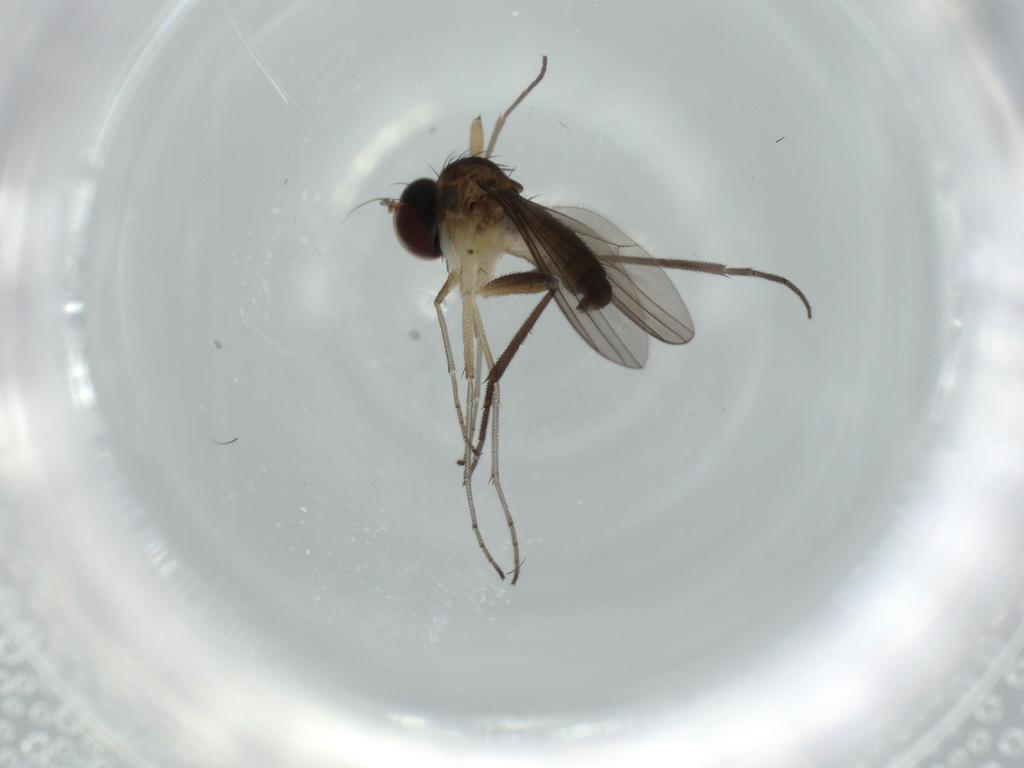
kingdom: Animalia
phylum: Arthropoda
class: Insecta
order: Diptera
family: Dolichopodidae
